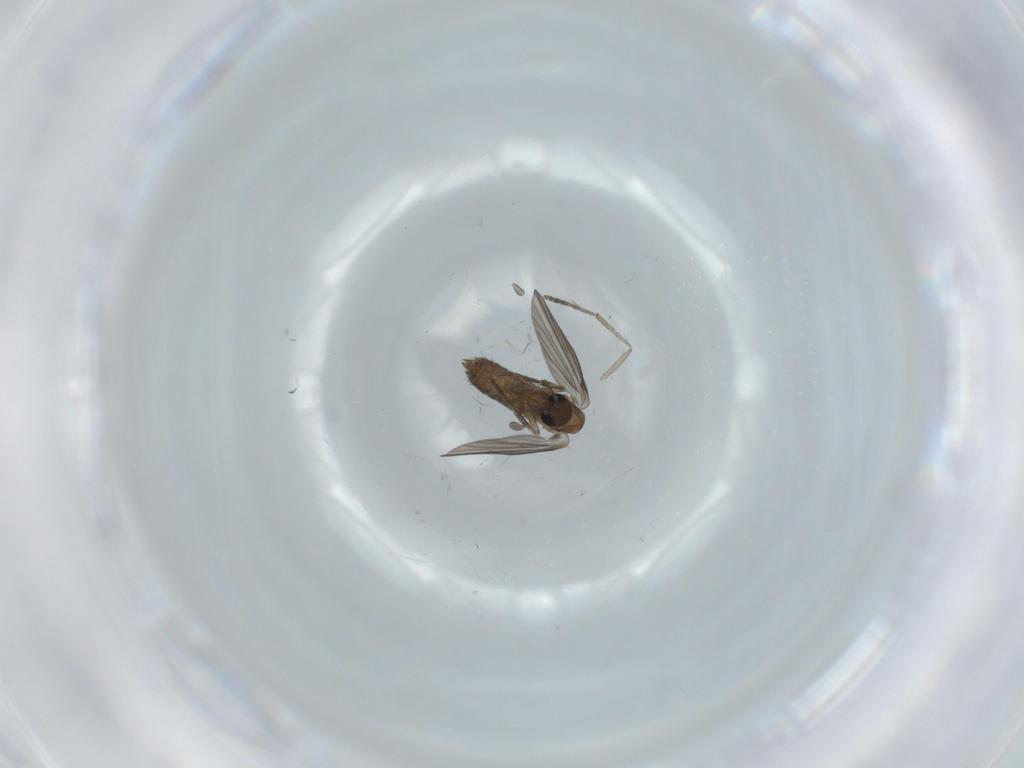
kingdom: Animalia
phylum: Arthropoda
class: Insecta
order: Diptera
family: Psychodidae
